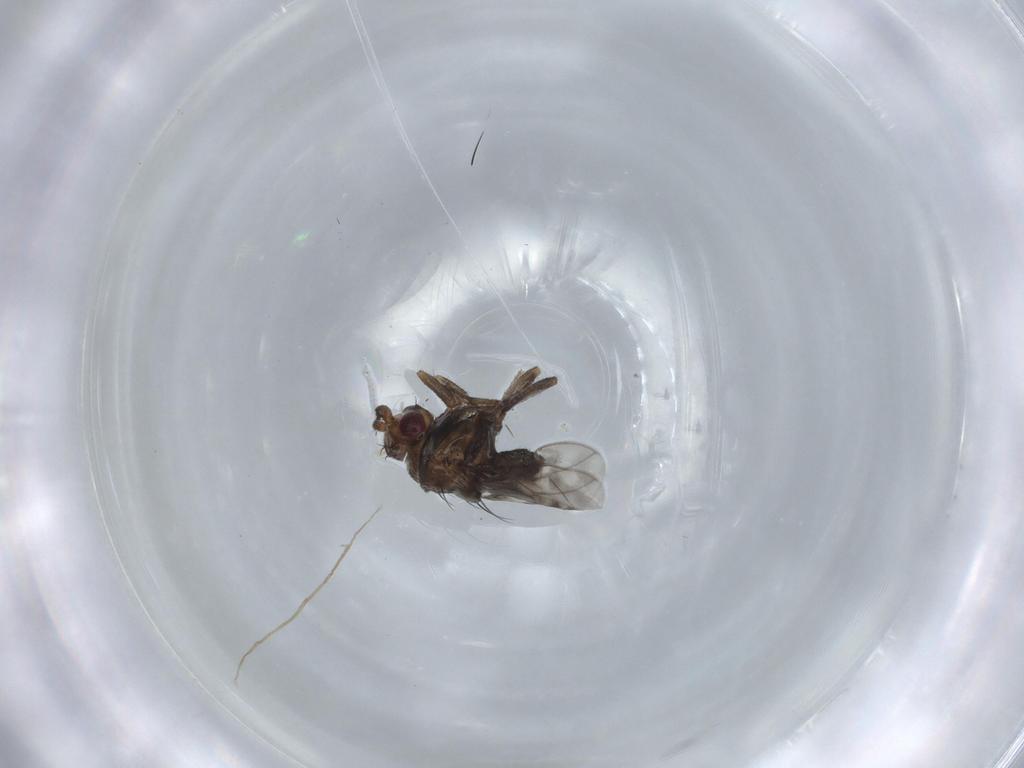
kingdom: Animalia
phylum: Arthropoda
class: Insecta
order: Diptera
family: Sphaeroceridae
